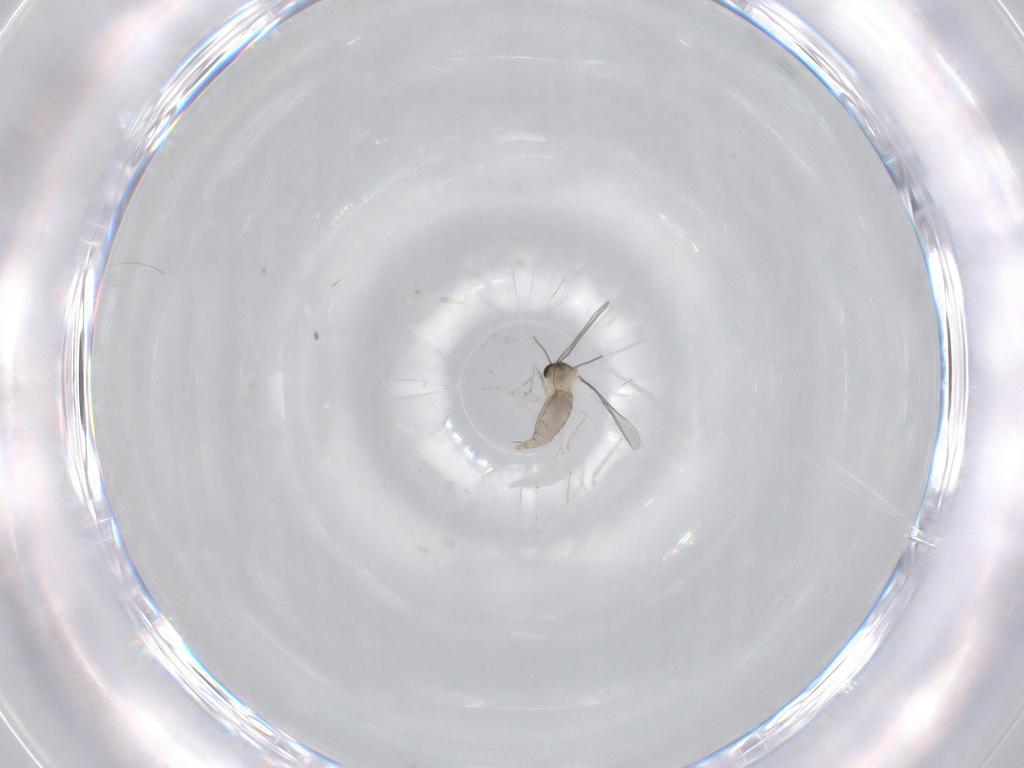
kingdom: Animalia
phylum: Arthropoda
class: Insecta
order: Diptera
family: Cecidomyiidae
